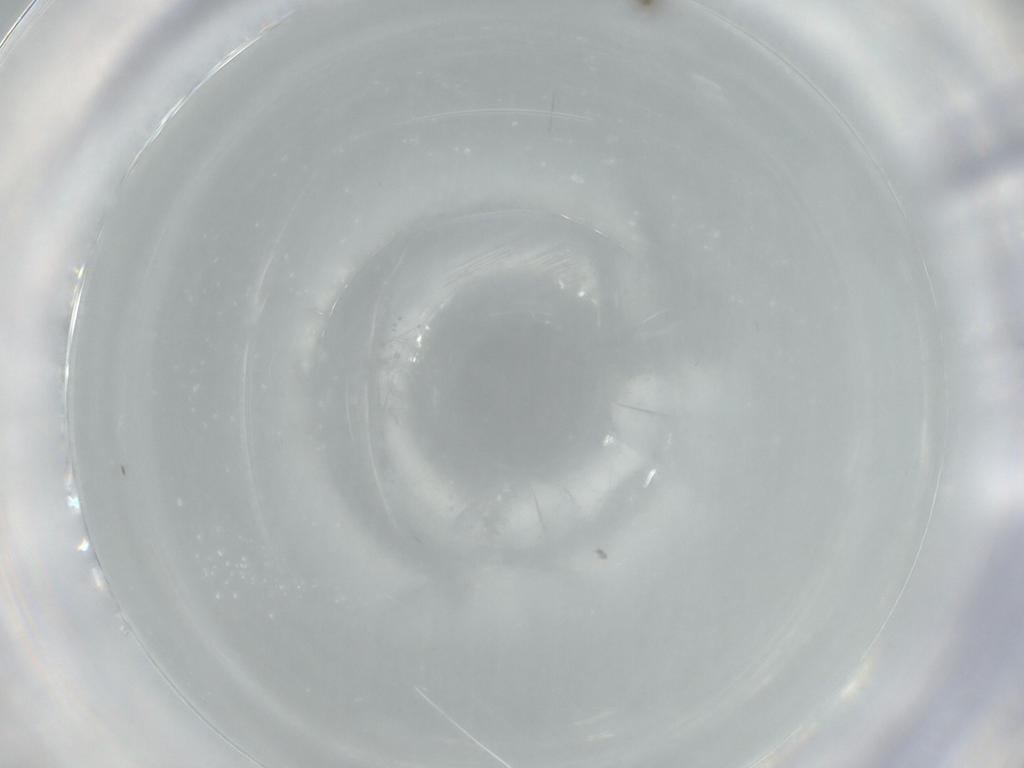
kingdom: Animalia
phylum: Arthropoda
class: Insecta
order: Hymenoptera
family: Mymaridae
